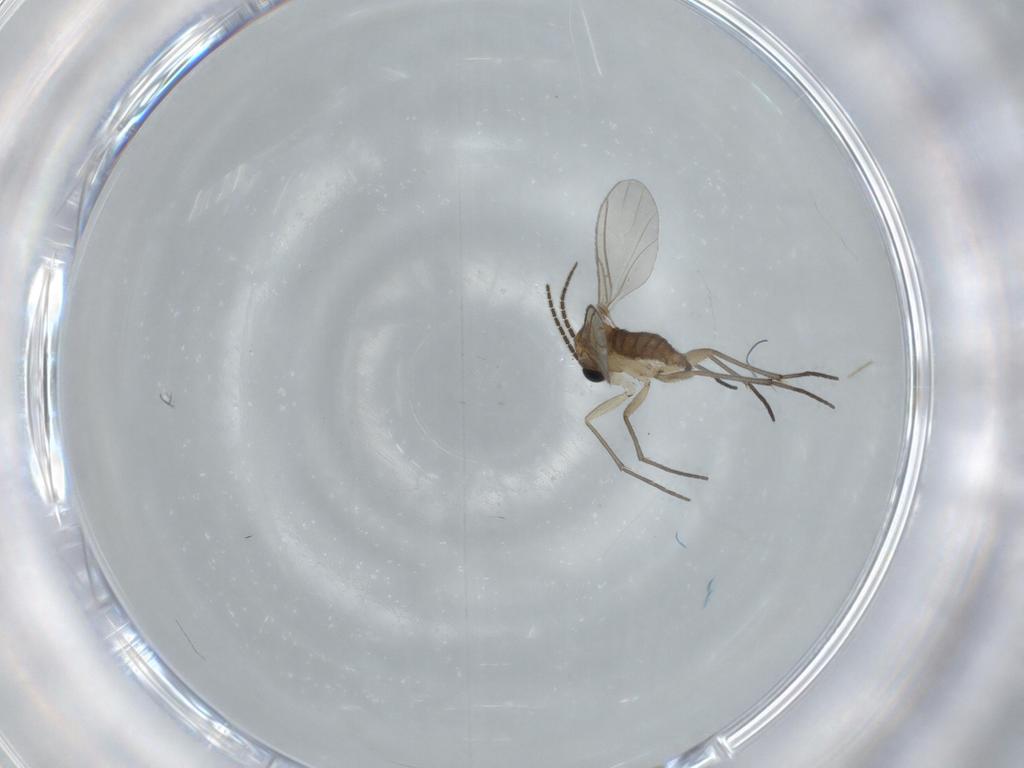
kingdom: Animalia
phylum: Arthropoda
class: Insecta
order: Diptera
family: Sciaridae
